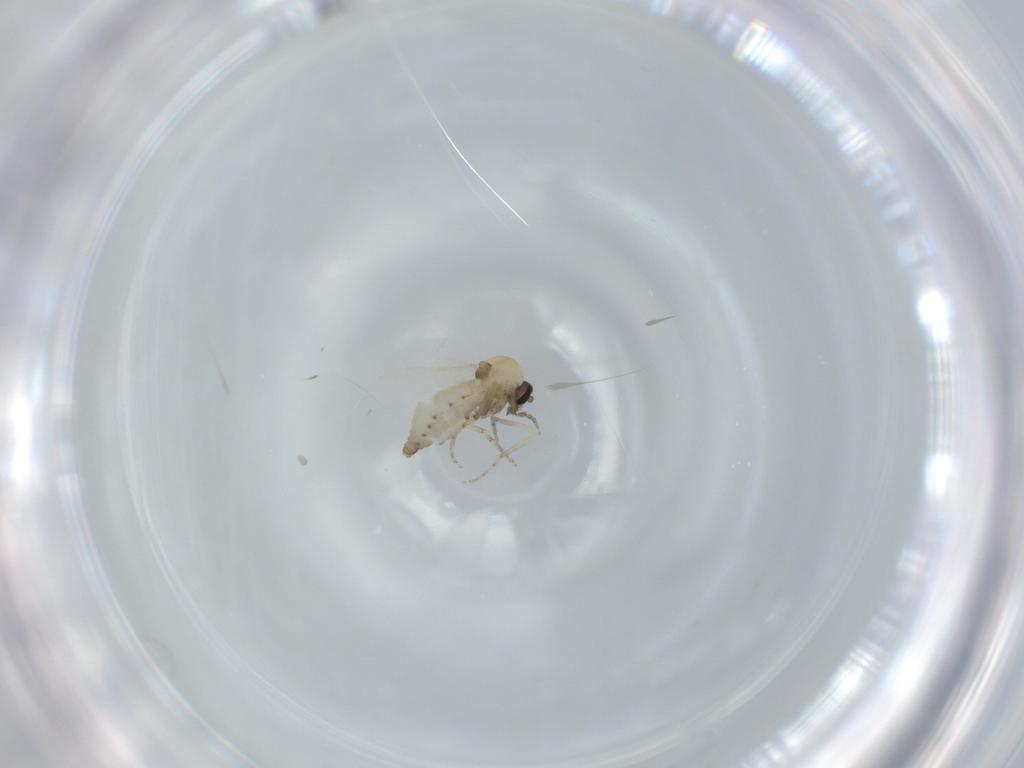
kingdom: Animalia
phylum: Arthropoda
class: Insecta
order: Diptera
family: Ceratopogonidae
